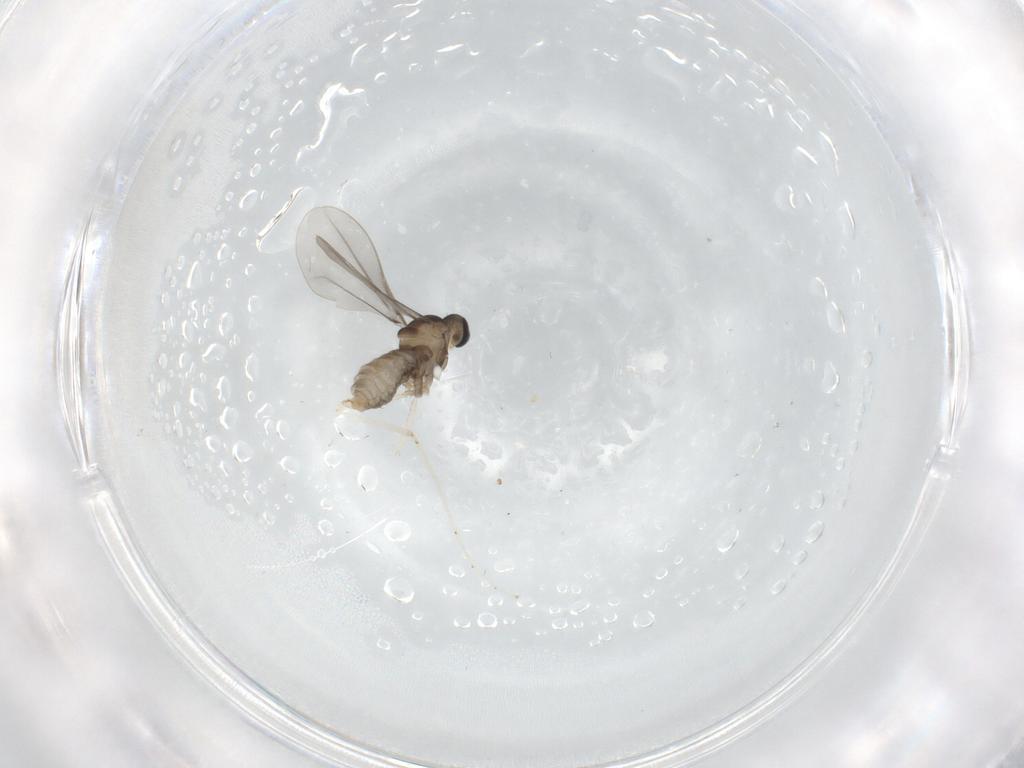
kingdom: Animalia
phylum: Arthropoda
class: Insecta
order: Diptera
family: Cecidomyiidae
